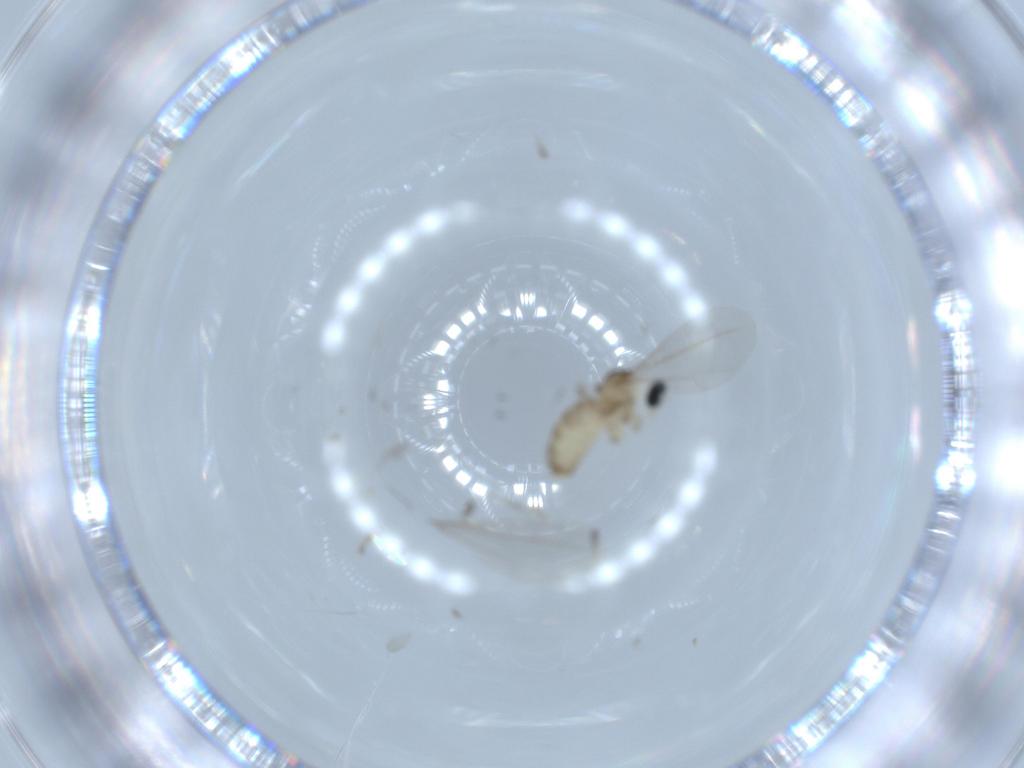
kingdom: Animalia
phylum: Arthropoda
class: Insecta
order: Diptera
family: Cecidomyiidae
